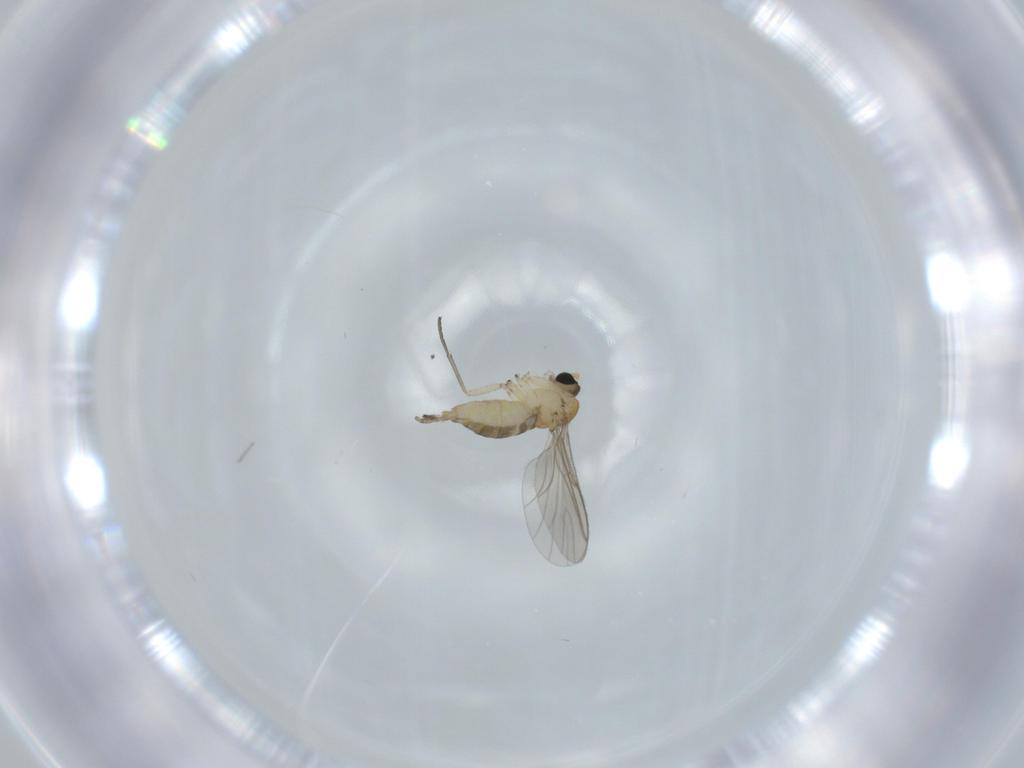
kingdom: Animalia
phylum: Arthropoda
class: Insecta
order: Diptera
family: Sciaridae
